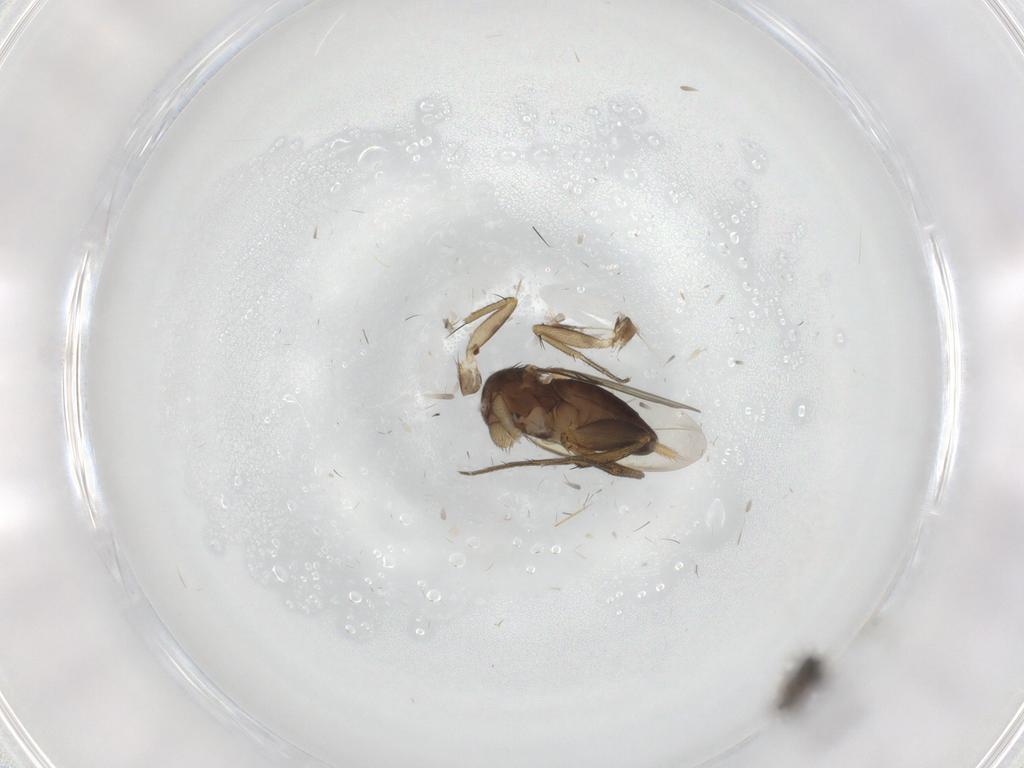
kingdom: Animalia
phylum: Arthropoda
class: Insecta
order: Diptera
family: Phoridae
